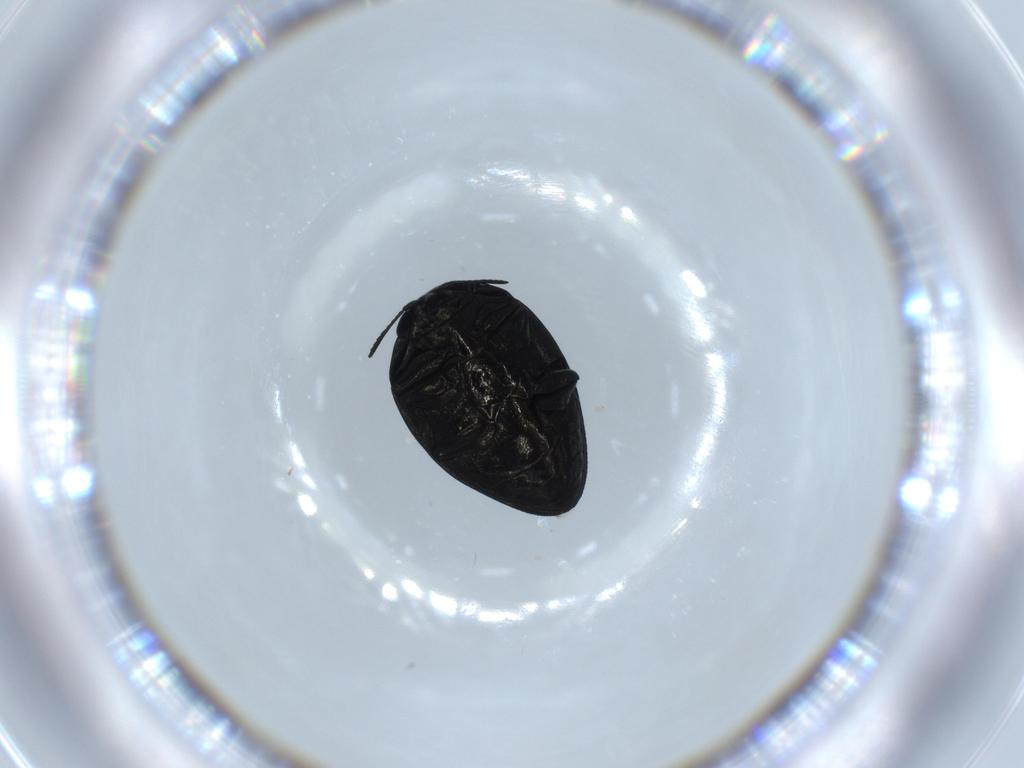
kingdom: Animalia
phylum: Arthropoda
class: Insecta
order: Coleoptera
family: Buprestidae
